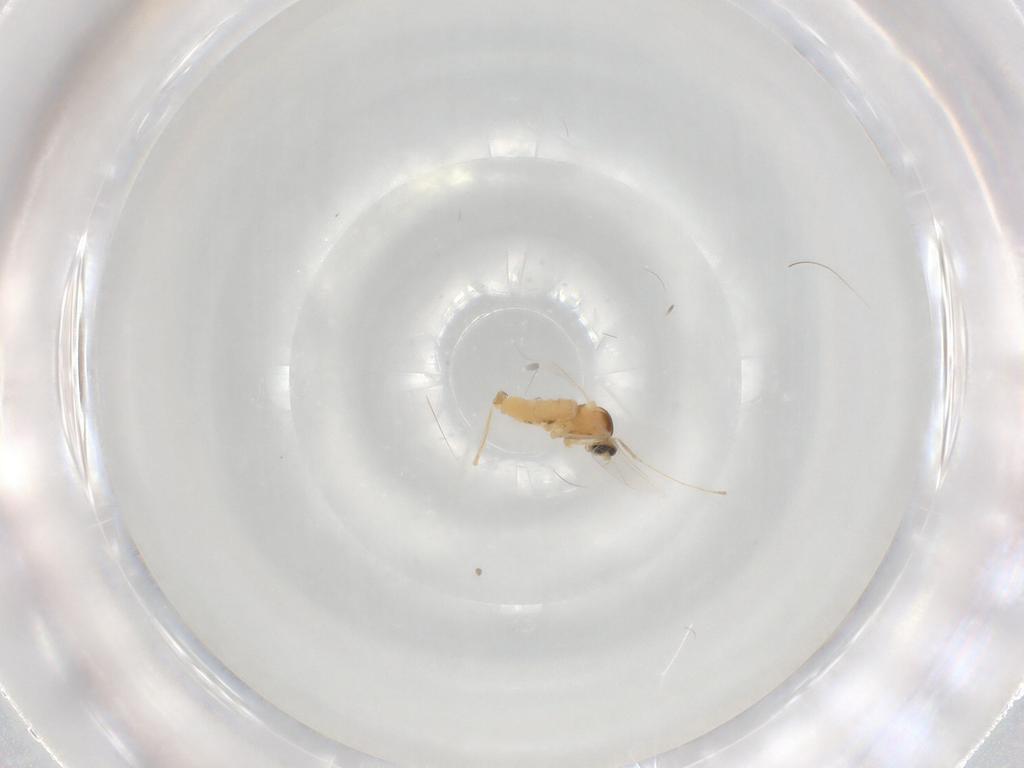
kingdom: Animalia
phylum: Arthropoda
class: Insecta
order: Diptera
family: Cecidomyiidae
